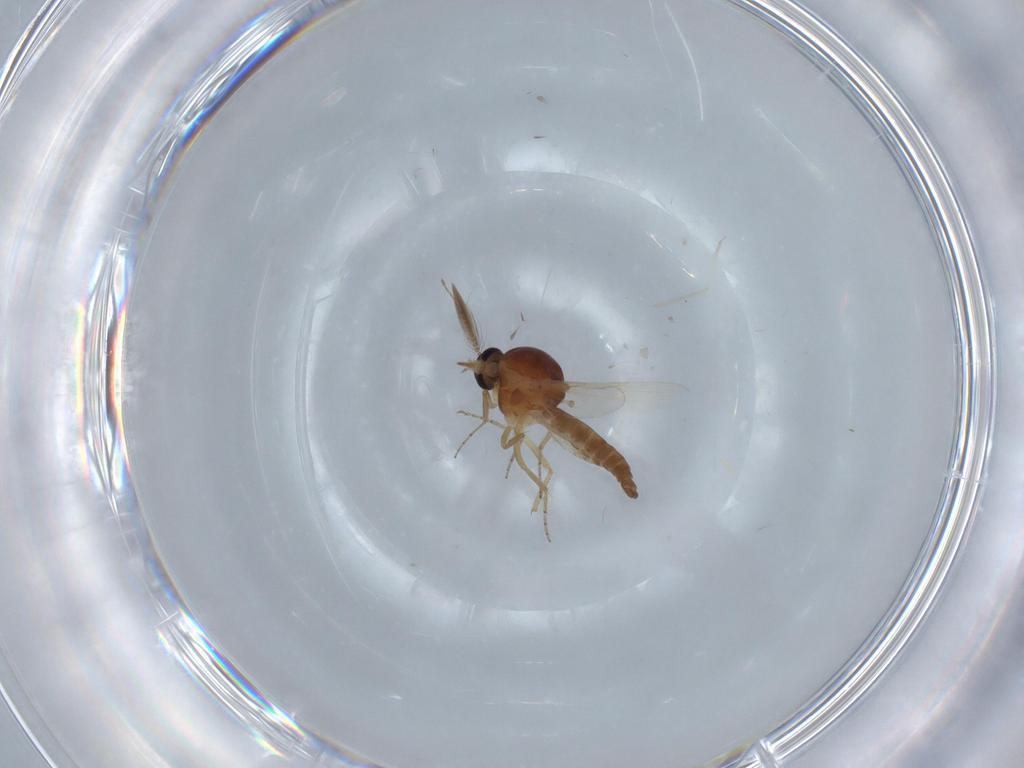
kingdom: Animalia
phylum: Arthropoda
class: Insecta
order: Diptera
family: Ceratopogonidae
